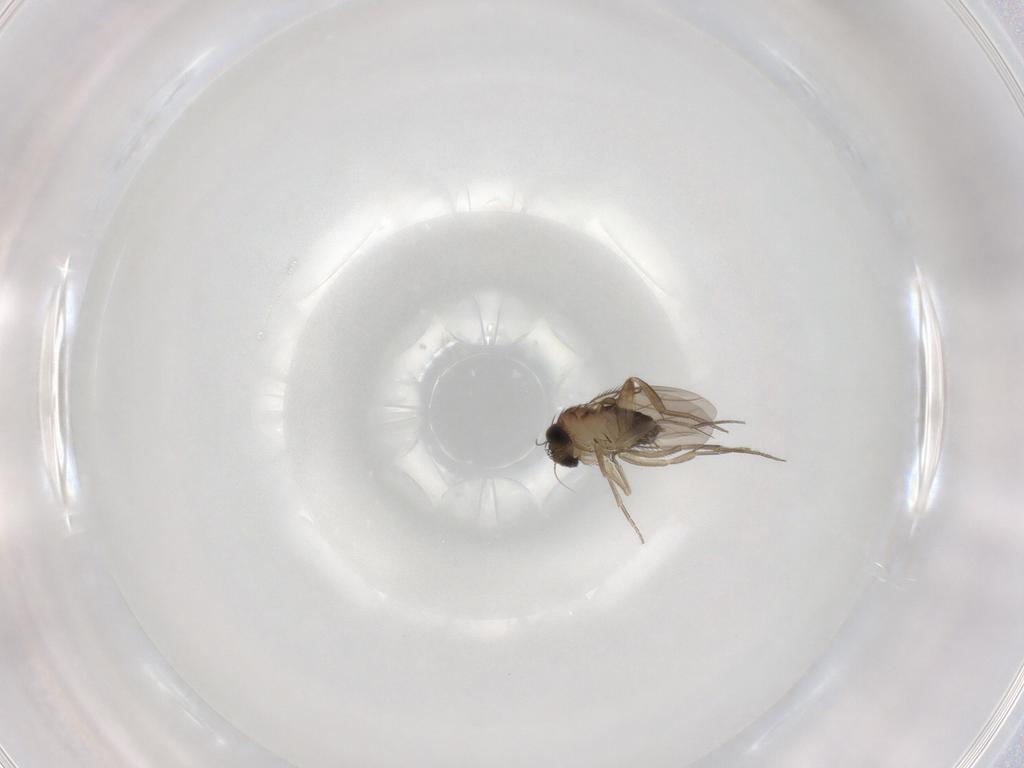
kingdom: Animalia
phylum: Arthropoda
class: Insecta
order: Diptera
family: Phoridae
